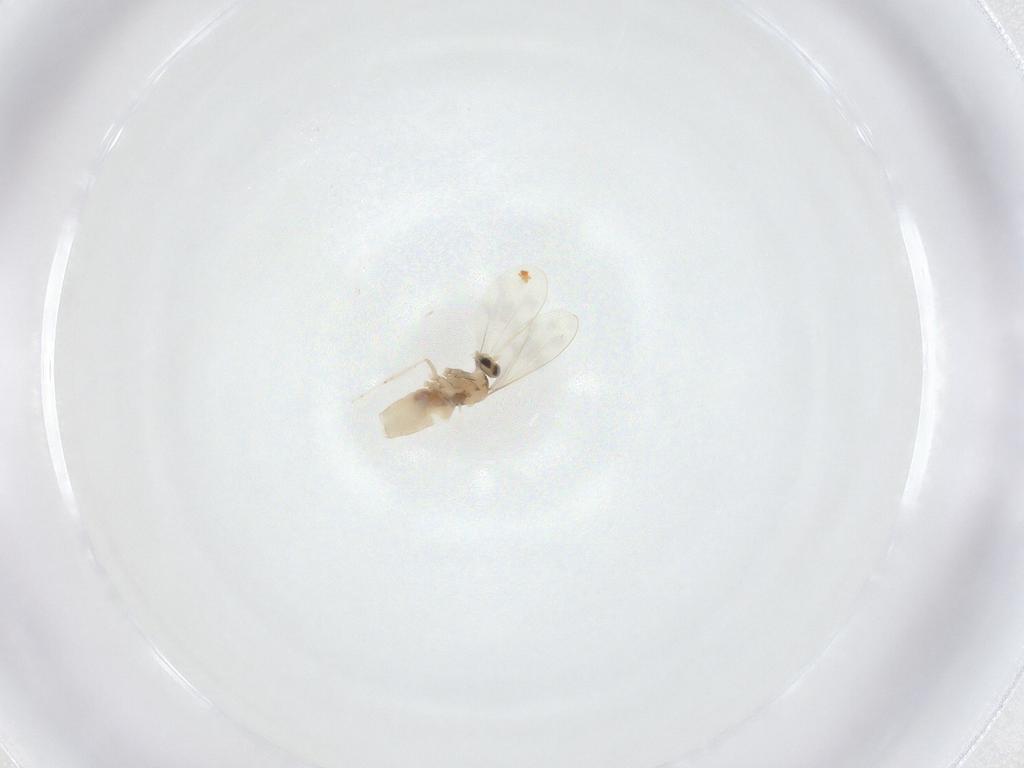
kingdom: Animalia
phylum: Arthropoda
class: Insecta
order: Diptera
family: Cecidomyiidae
